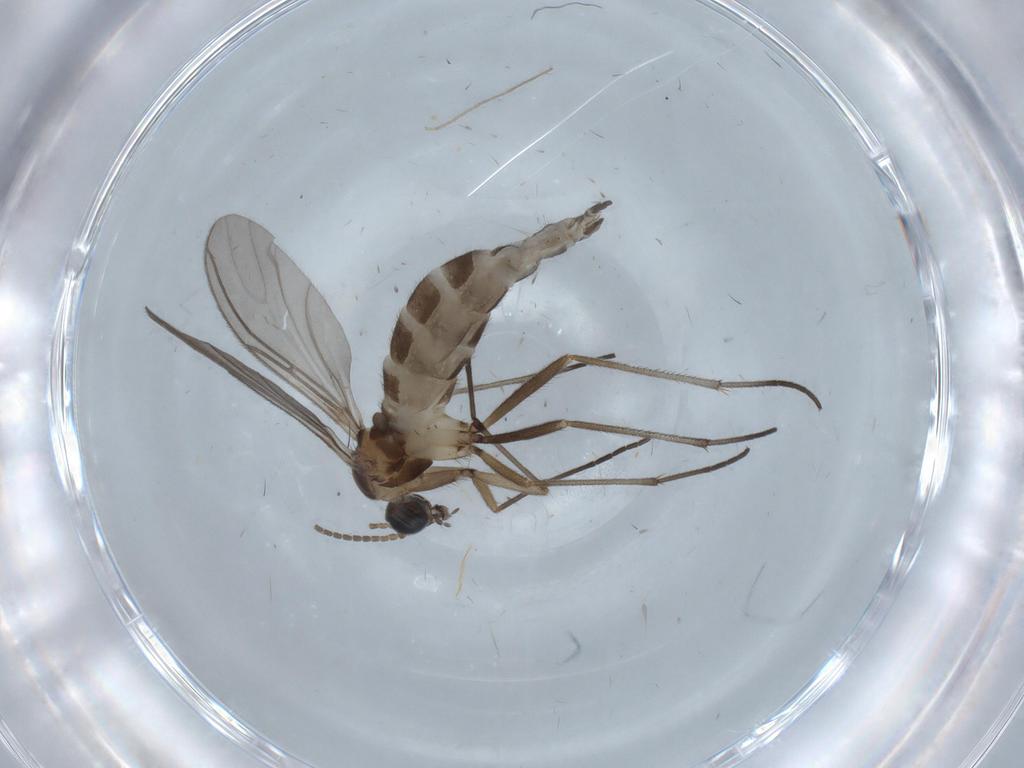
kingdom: Animalia
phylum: Arthropoda
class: Insecta
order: Diptera
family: Sciaridae
